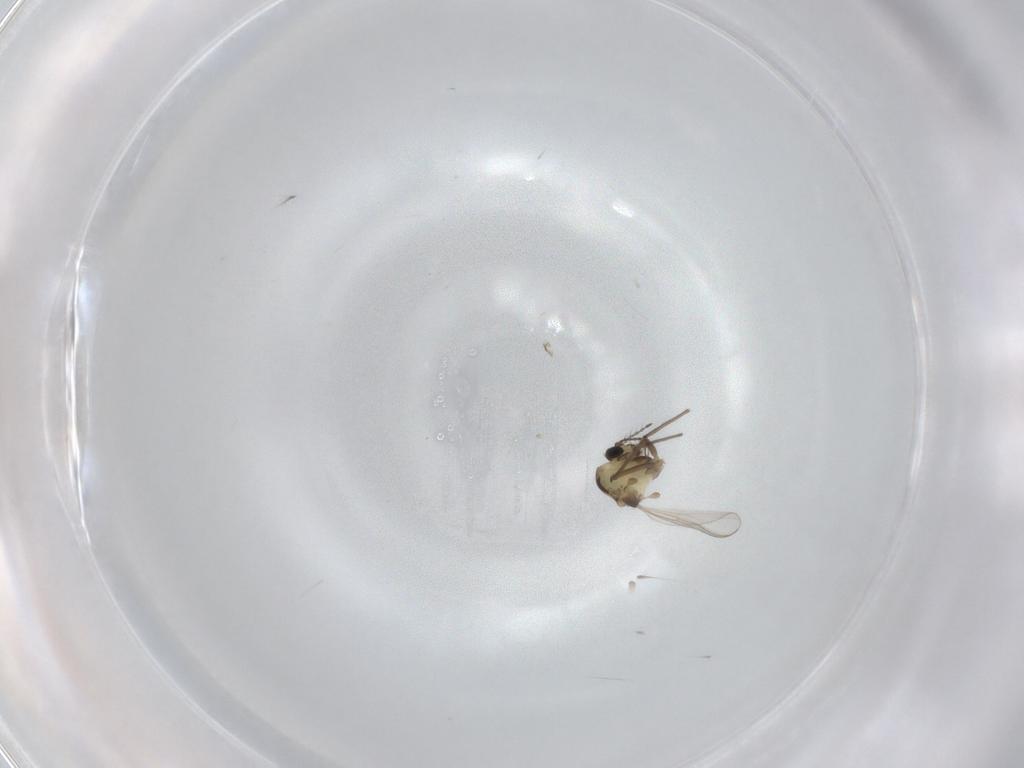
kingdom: Animalia
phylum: Arthropoda
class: Insecta
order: Diptera
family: Chironomidae
